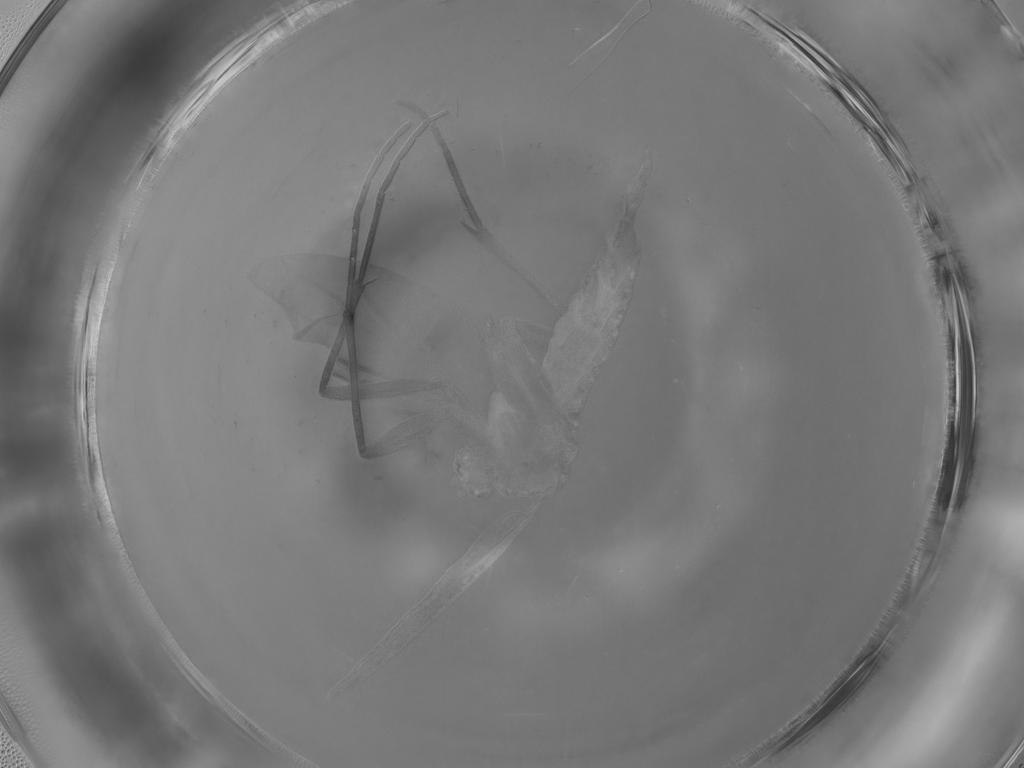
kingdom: Animalia
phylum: Arthropoda
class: Insecta
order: Diptera
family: Sciaridae
